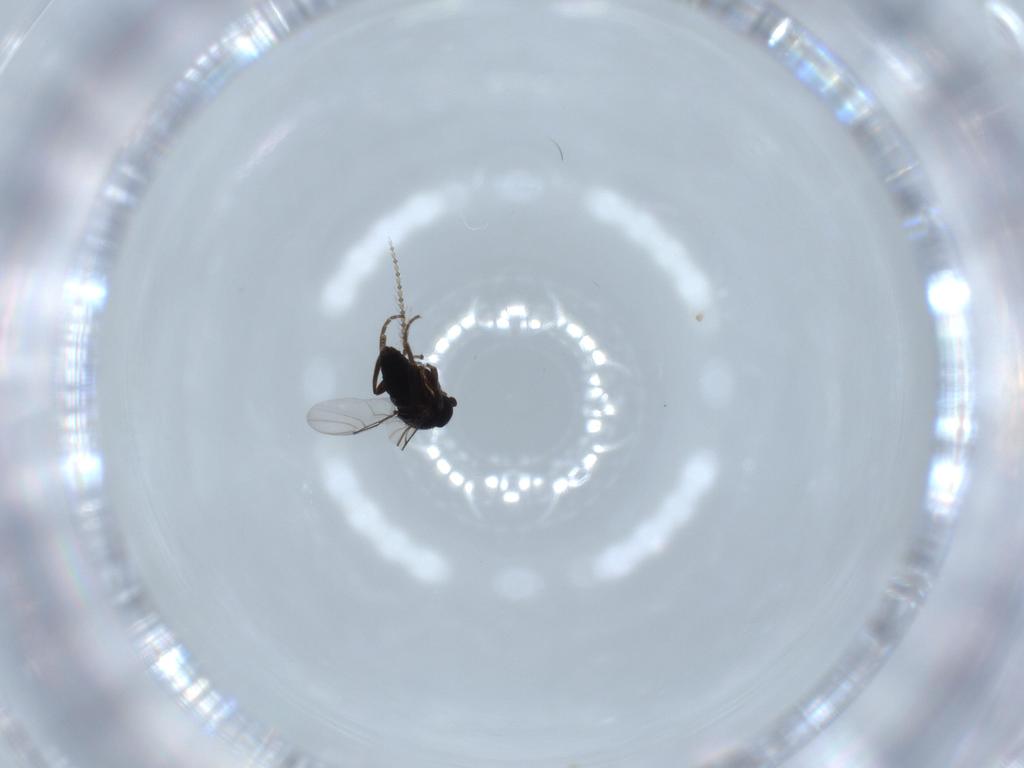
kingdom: Animalia
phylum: Arthropoda
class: Insecta
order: Diptera
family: Phoridae
